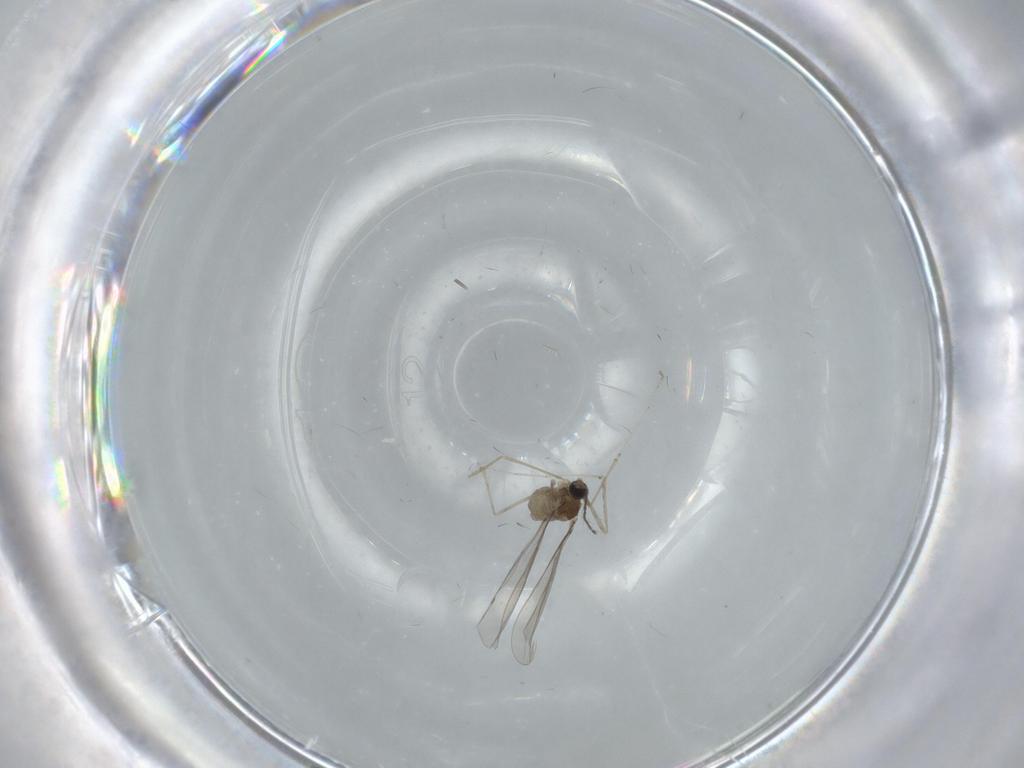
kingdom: Animalia
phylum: Arthropoda
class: Insecta
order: Diptera
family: Cecidomyiidae
